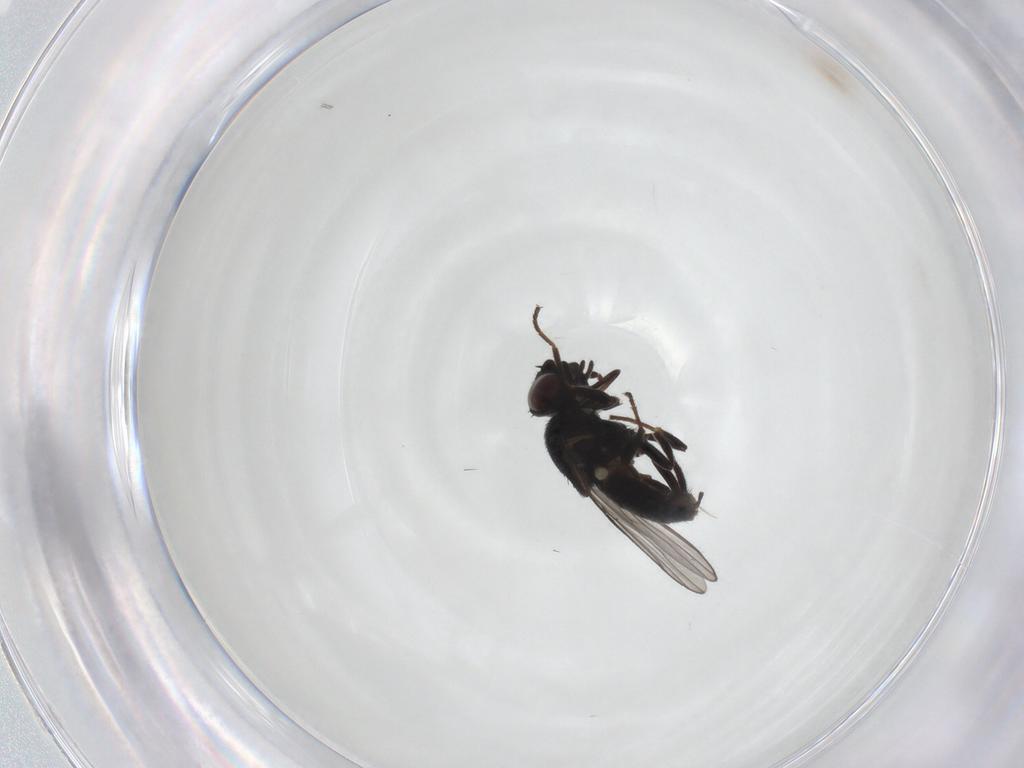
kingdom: Animalia
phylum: Arthropoda
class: Insecta
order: Diptera
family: Chloropidae
